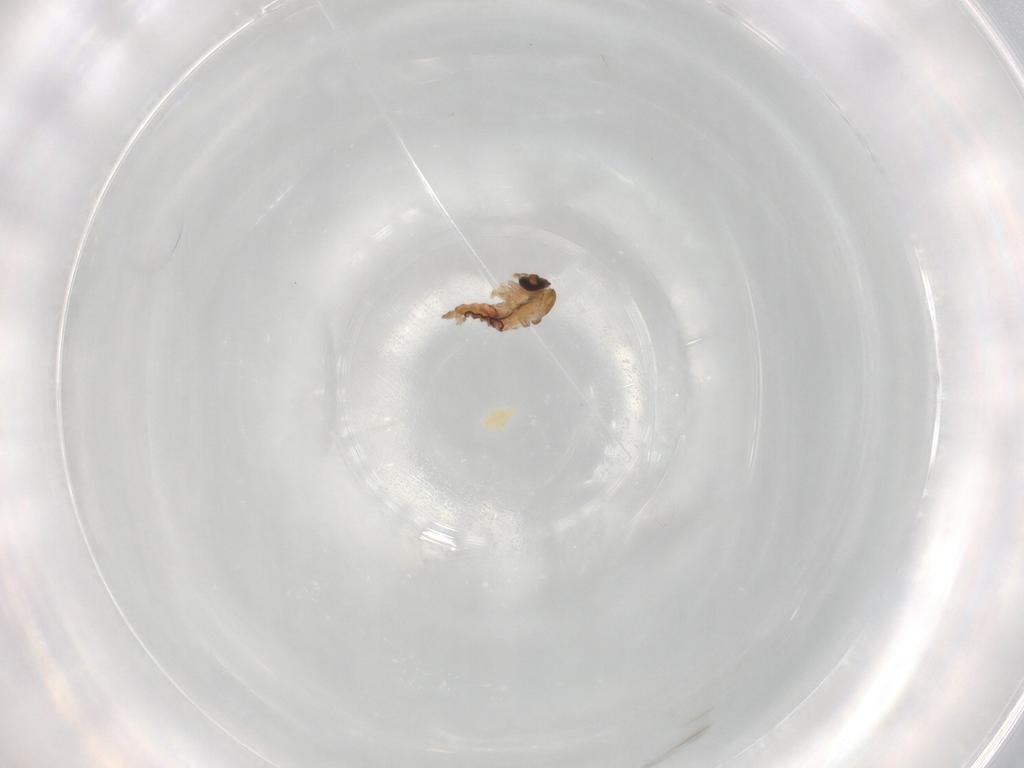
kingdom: Animalia
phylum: Arthropoda
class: Insecta
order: Diptera
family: Psychodidae
